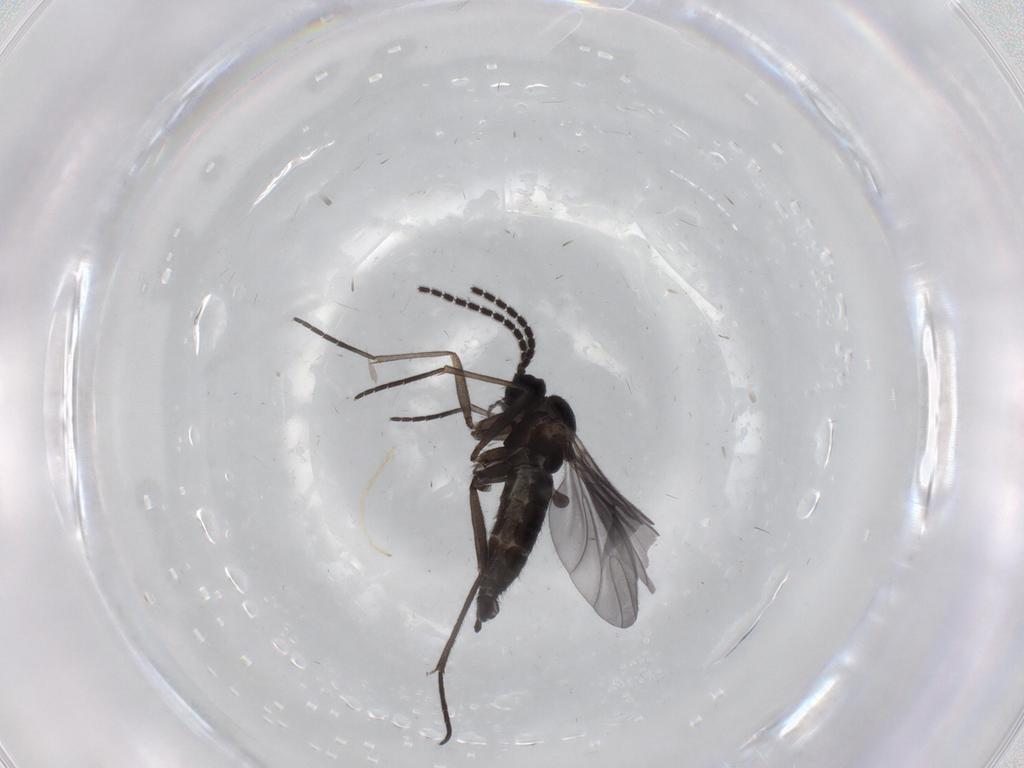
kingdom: Animalia
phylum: Arthropoda
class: Insecta
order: Diptera
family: Sciaridae
